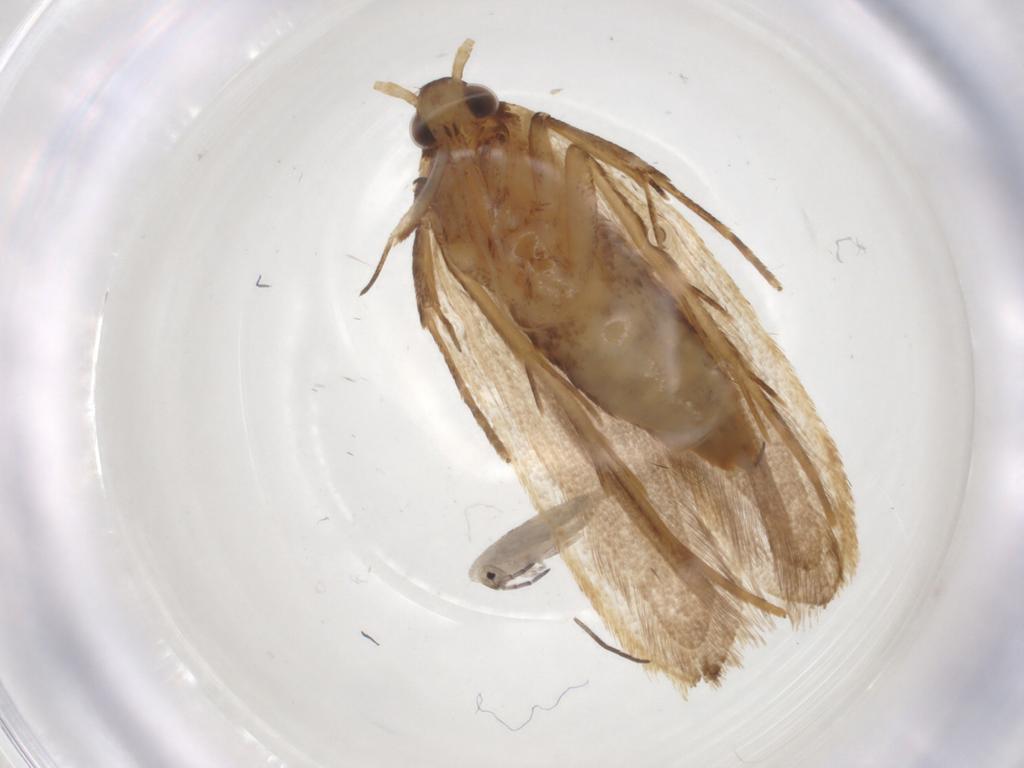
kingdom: Animalia
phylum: Arthropoda
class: Insecta
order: Lepidoptera
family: Lecithoceridae
